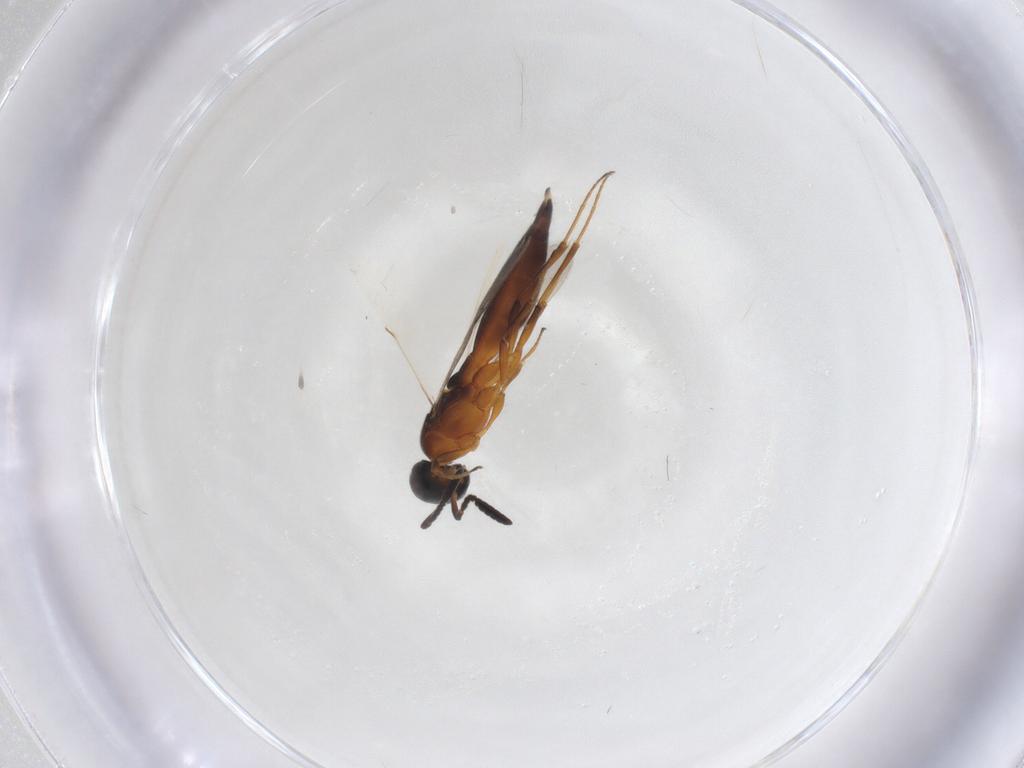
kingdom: Animalia
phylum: Arthropoda
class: Insecta
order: Hymenoptera
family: Scelionidae
